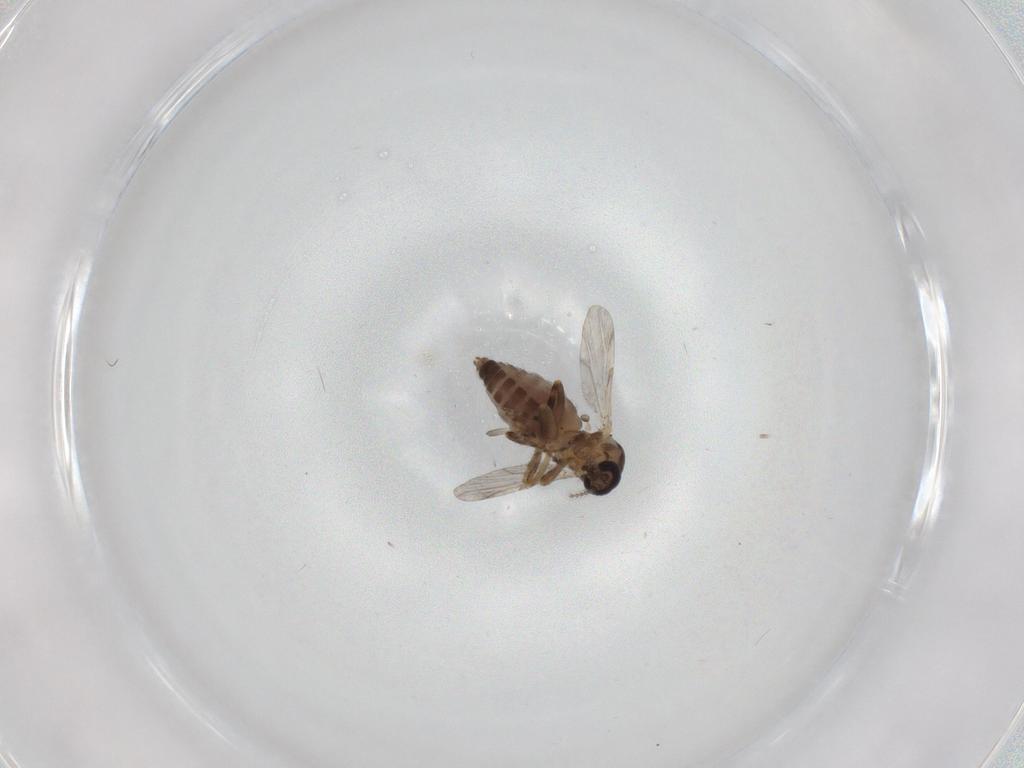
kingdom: Animalia
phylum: Arthropoda
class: Insecta
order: Diptera
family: Ceratopogonidae
